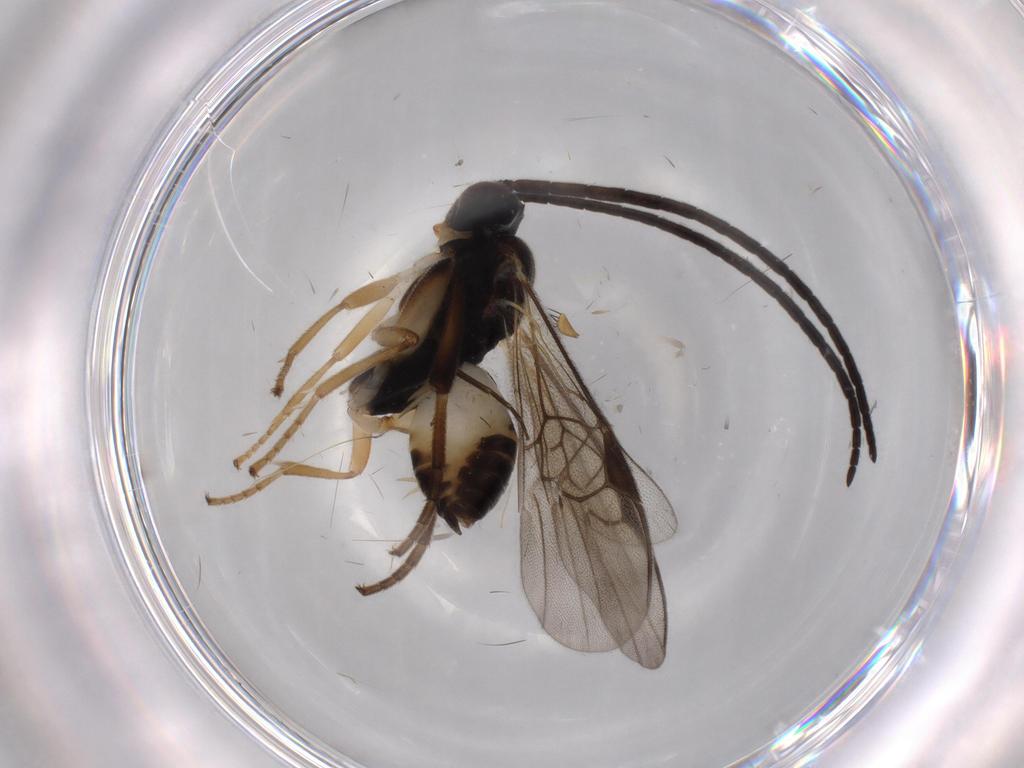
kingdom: Animalia
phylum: Arthropoda
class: Insecta
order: Hymenoptera
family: Braconidae
